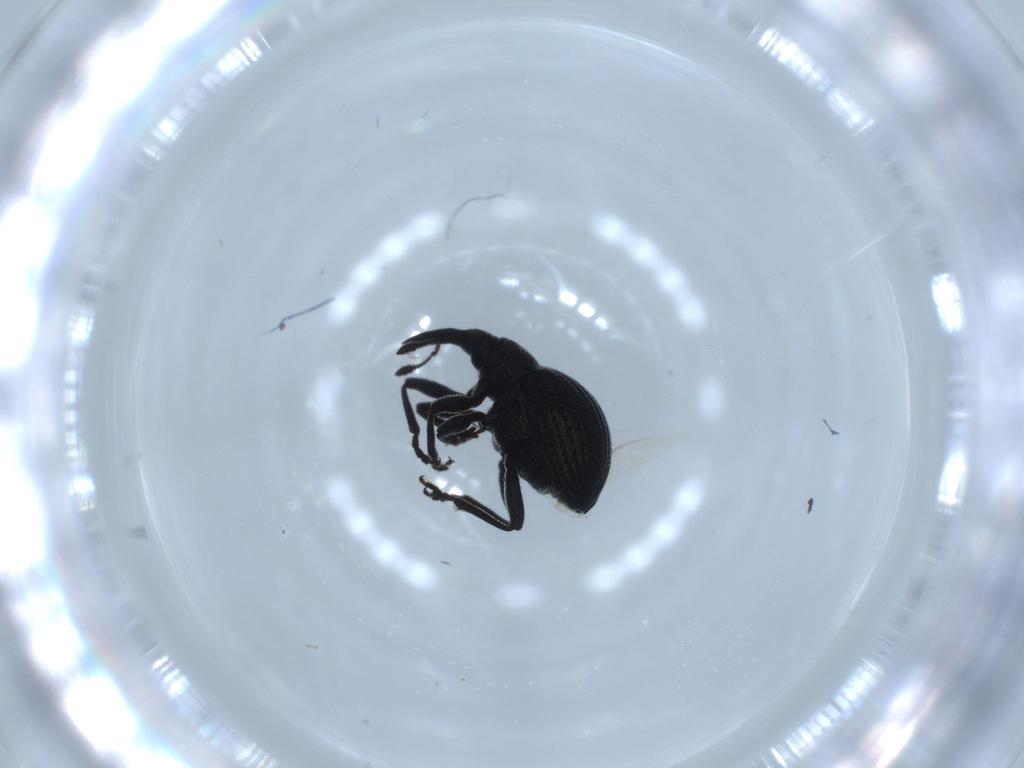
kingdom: Animalia
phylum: Arthropoda
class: Insecta
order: Coleoptera
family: Brentidae
